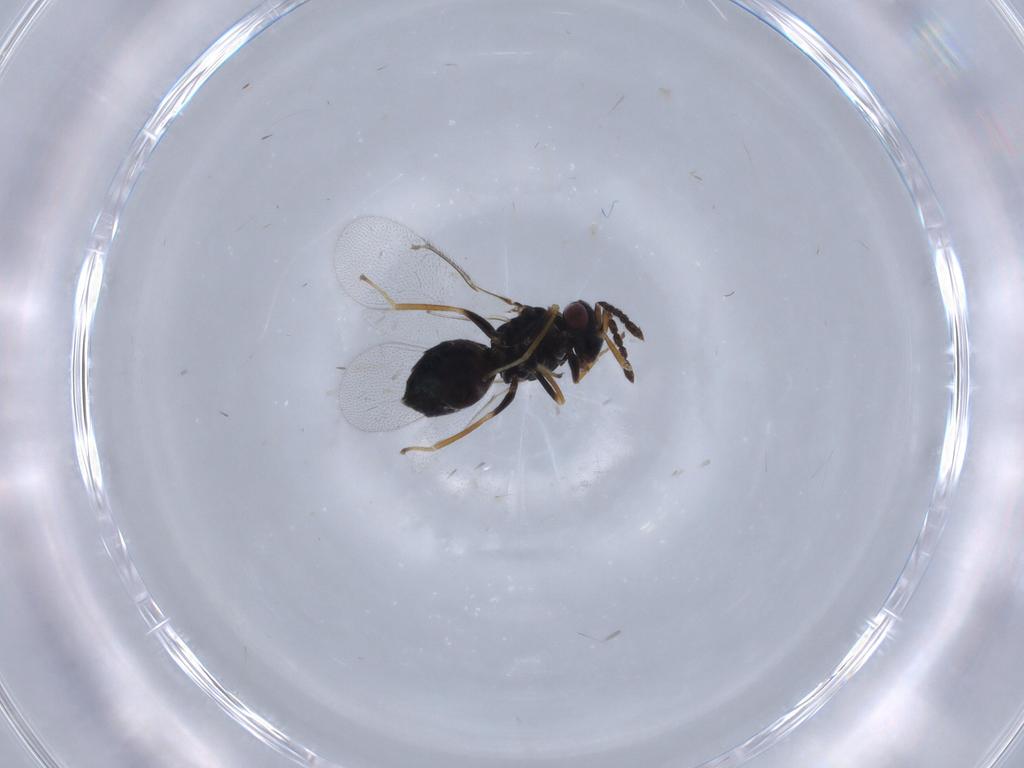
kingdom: Animalia
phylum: Arthropoda
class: Insecta
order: Hymenoptera
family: Eulophidae
